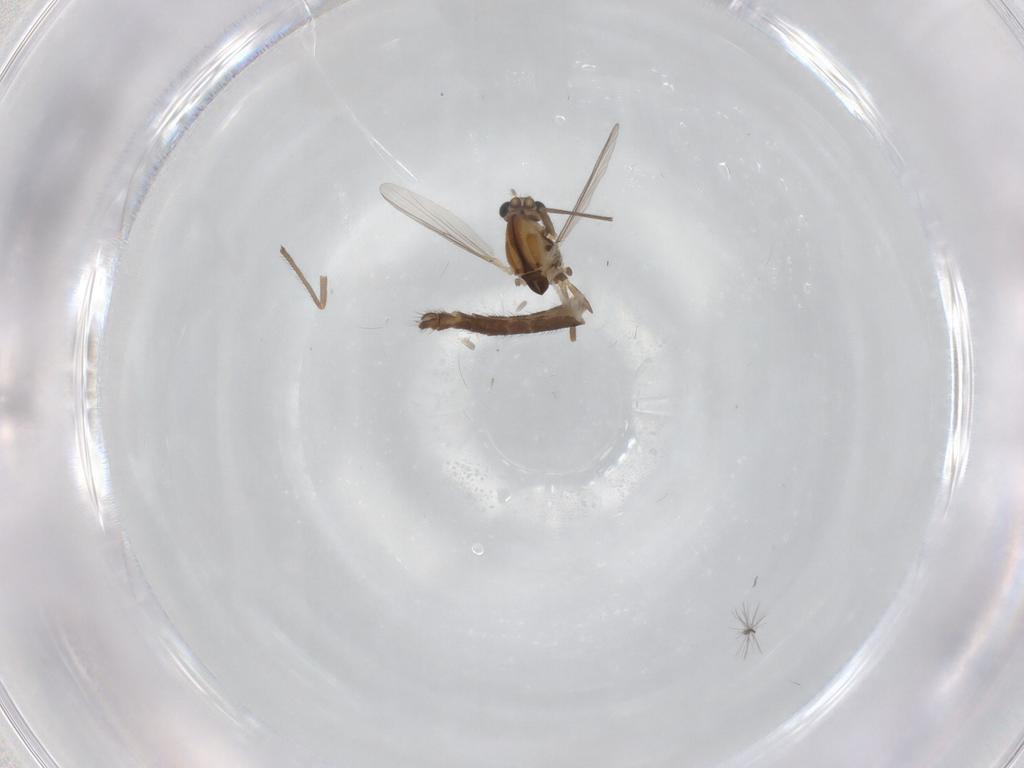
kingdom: Animalia
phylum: Arthropoda
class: Insecta
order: Diptera
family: Chironomidae
